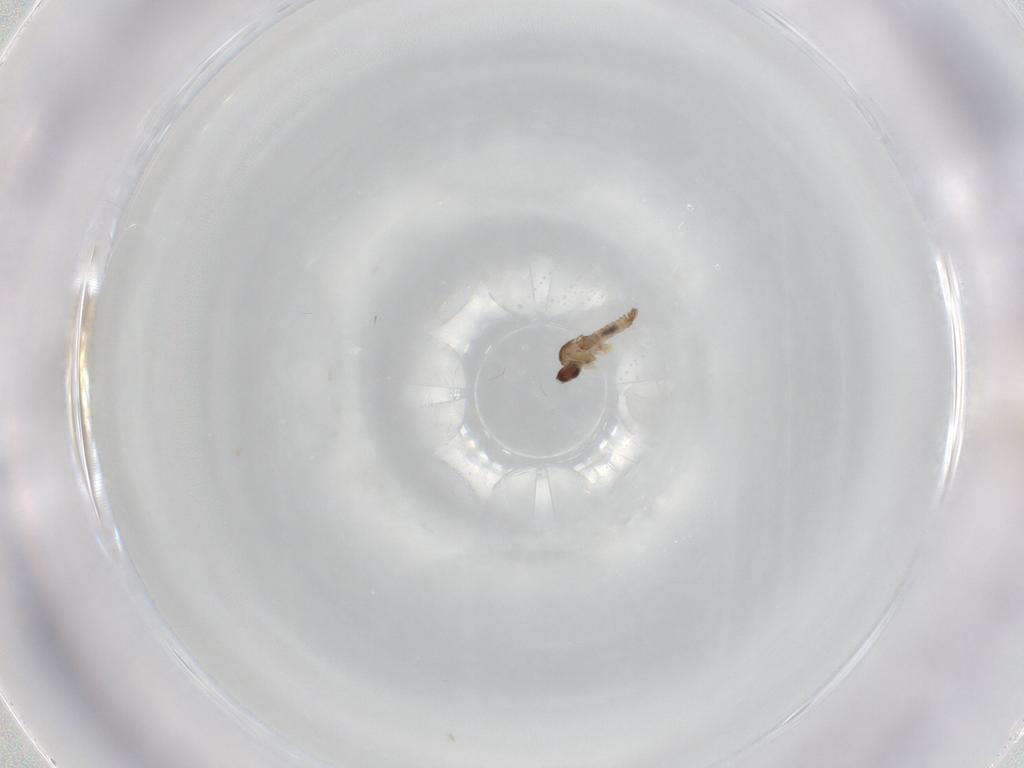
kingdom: Animalia
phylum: Arthropoda
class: Insecta
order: Diptera
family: Cecidomyiidae
